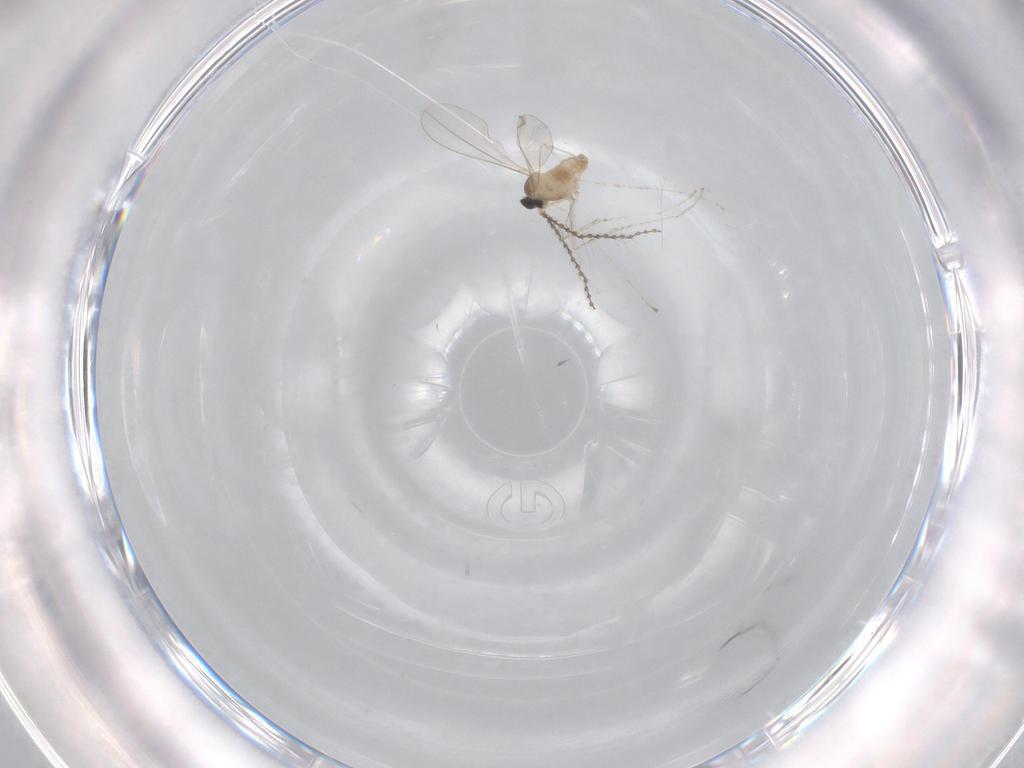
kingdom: Animalia
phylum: Arthropoda
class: Insecta
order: Diptera
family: Cecidomyiidae
